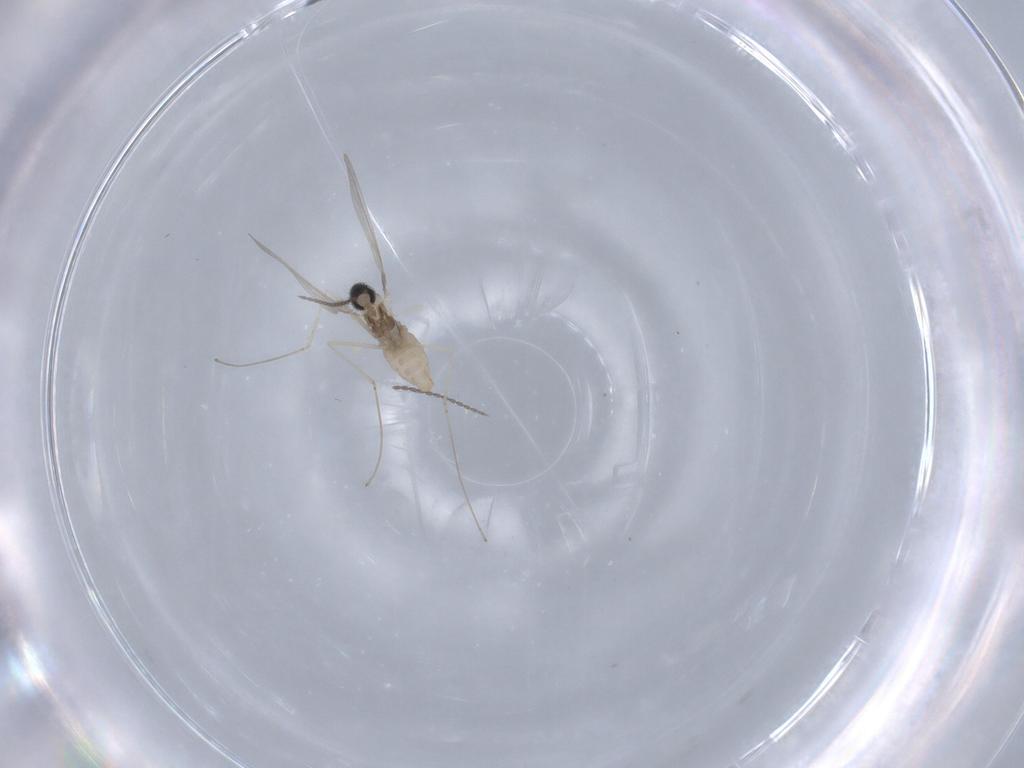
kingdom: Animalia
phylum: Arthropoda
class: Insecta
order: Diptera
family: Cecidomyiidae
